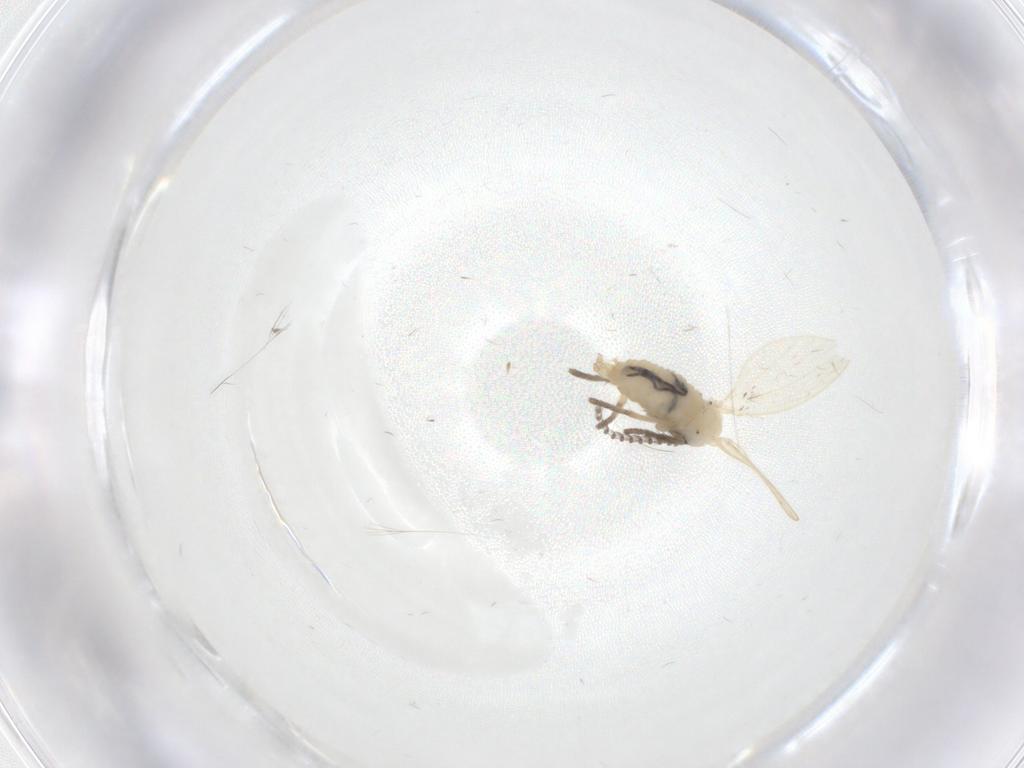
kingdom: Animalia
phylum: Arthropoda
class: Insecta
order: Diptera
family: Psychodidae
